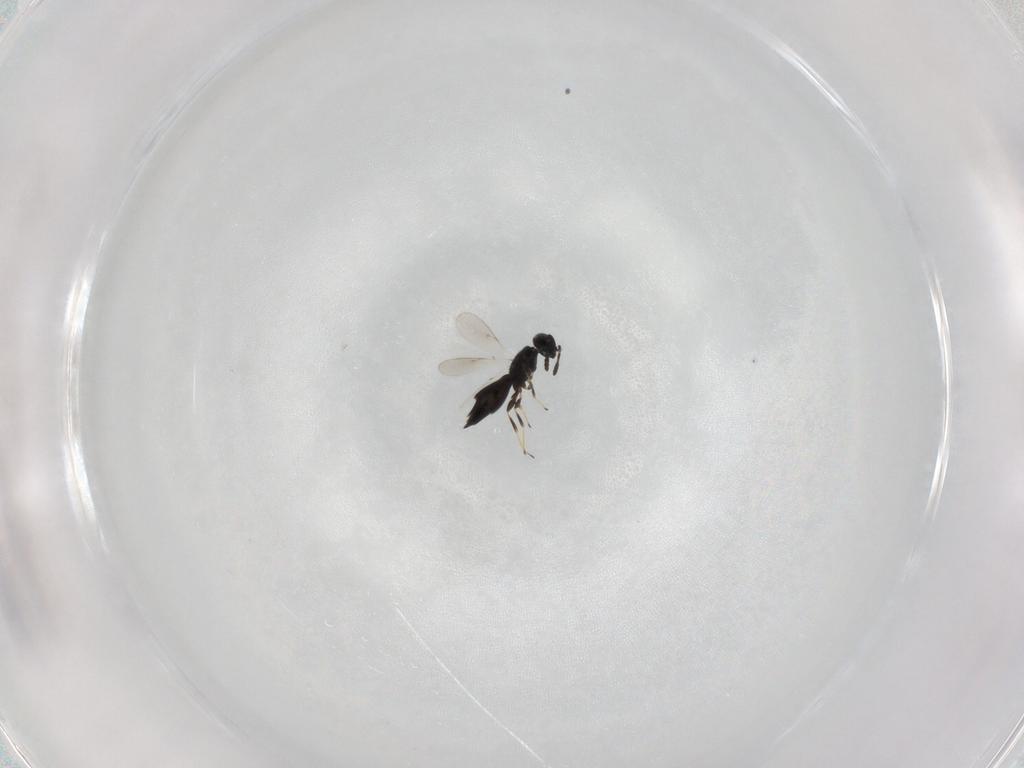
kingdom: Animalia
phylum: Arthropoda
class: Insecta
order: Hymenoptera
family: Scelionidae
